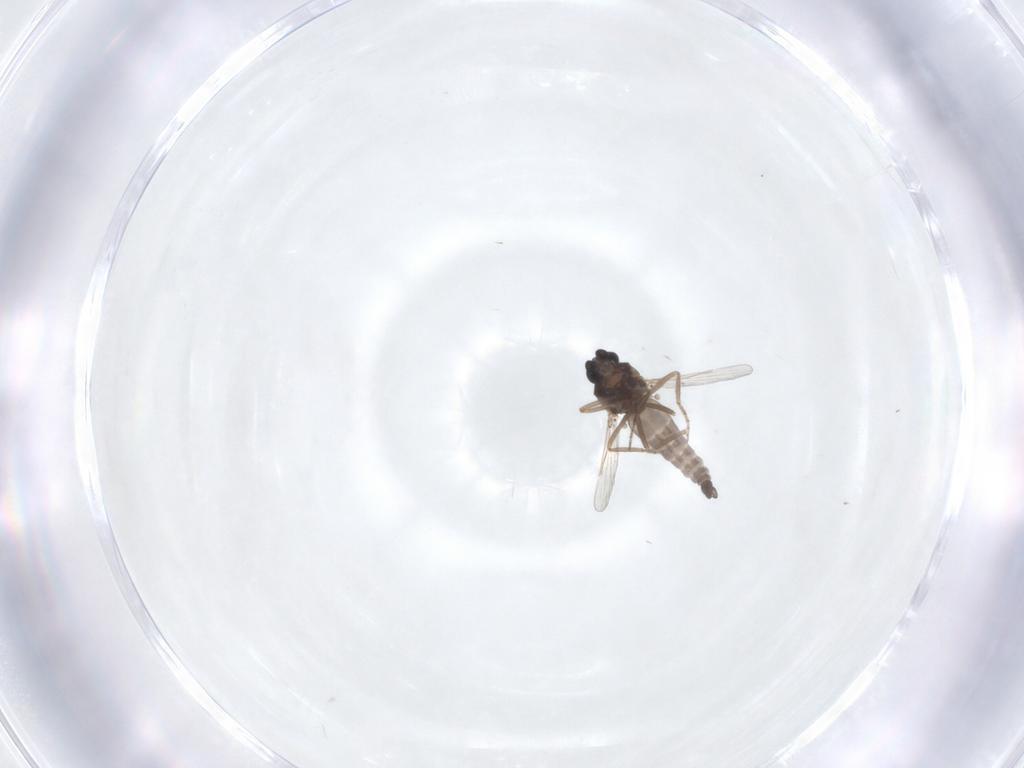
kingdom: Animalia
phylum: Arthropoda
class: Insecta
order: Diptera
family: Ceratopogonidae
